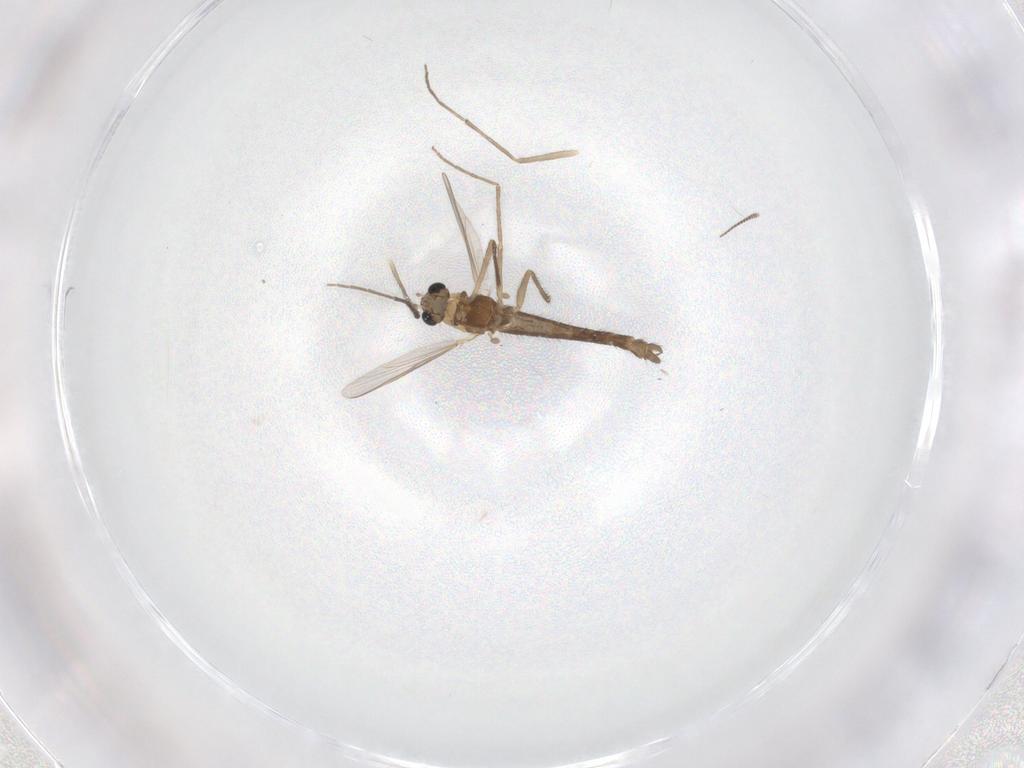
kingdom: Animalia
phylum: Arthropoda
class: Insecta
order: Diptera
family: Chironomidae
